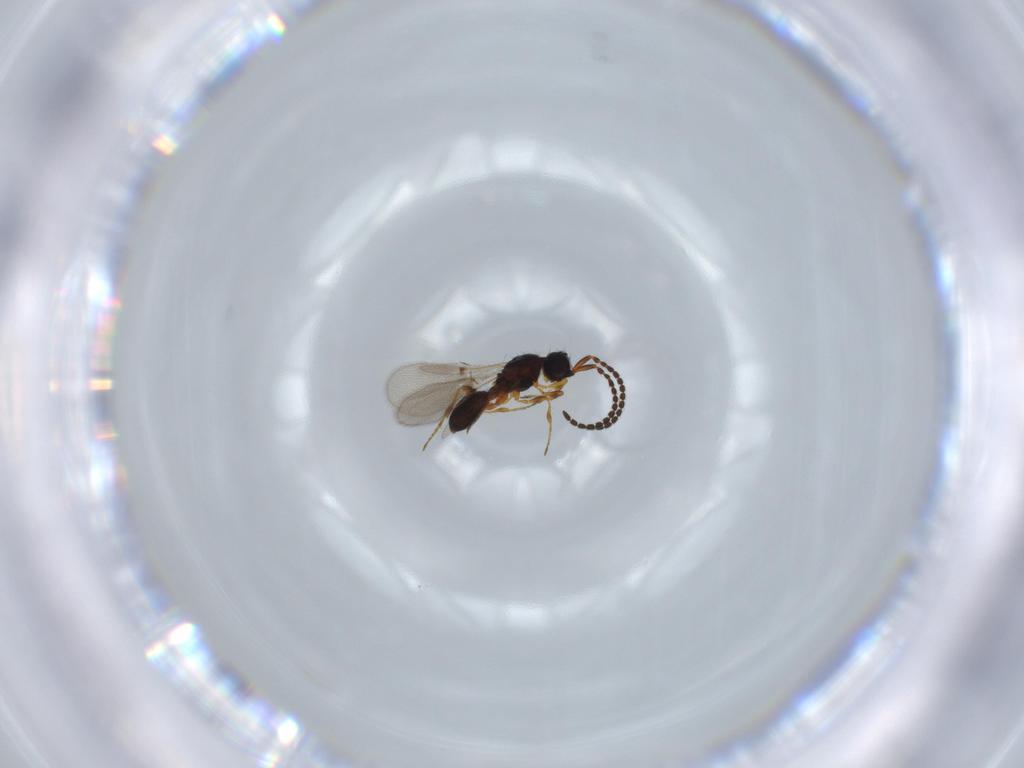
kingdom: Animalia
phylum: Arthropoda
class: Insecta
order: Hymenoptera
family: Diapriidae
